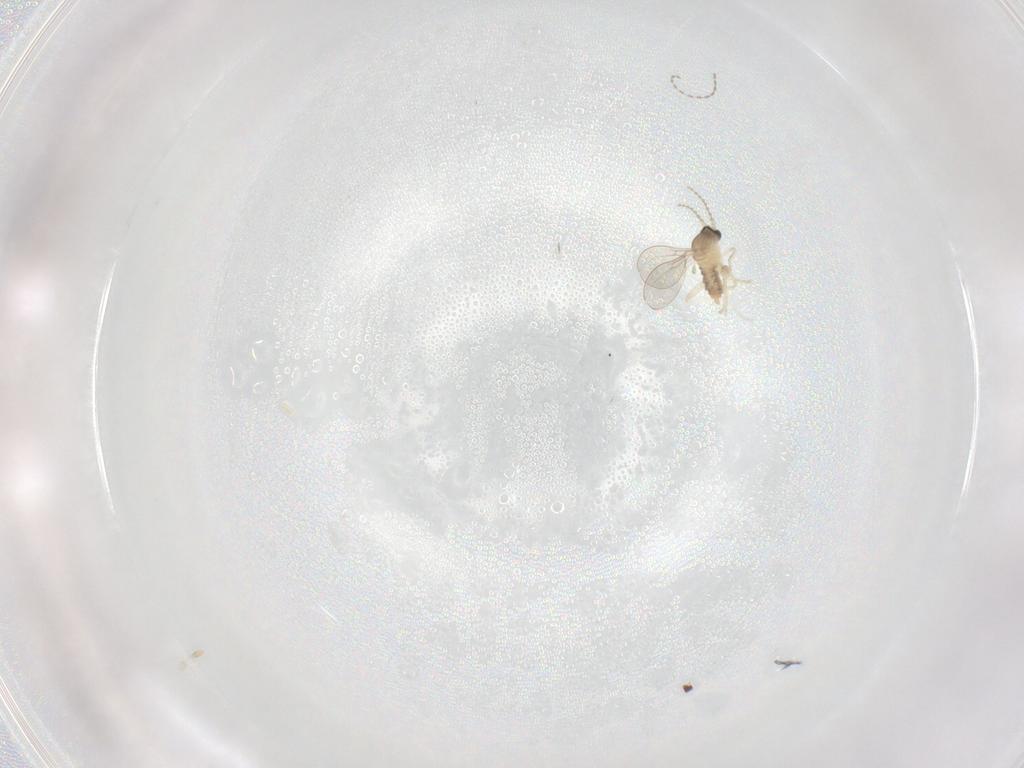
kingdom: Animalia
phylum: Arthropoda
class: Insecta
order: Diptera
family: Cecidomyiidae
